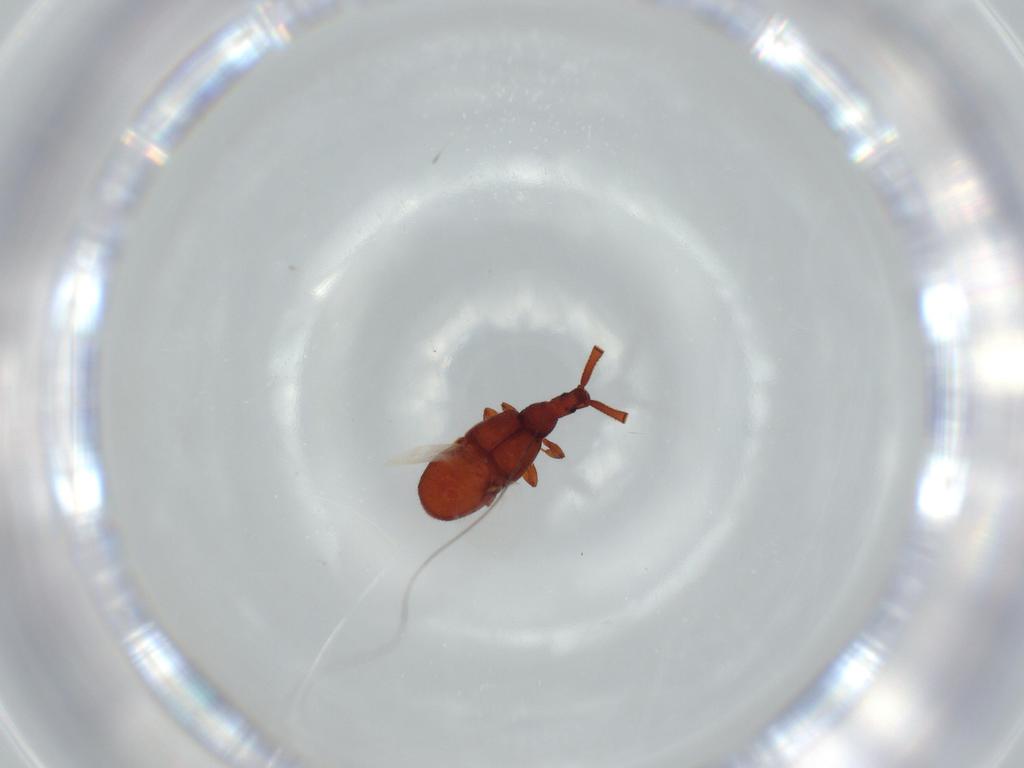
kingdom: Animalia
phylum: Arthropoda
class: Insecta
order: Coleoptera
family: Staphylinidae
